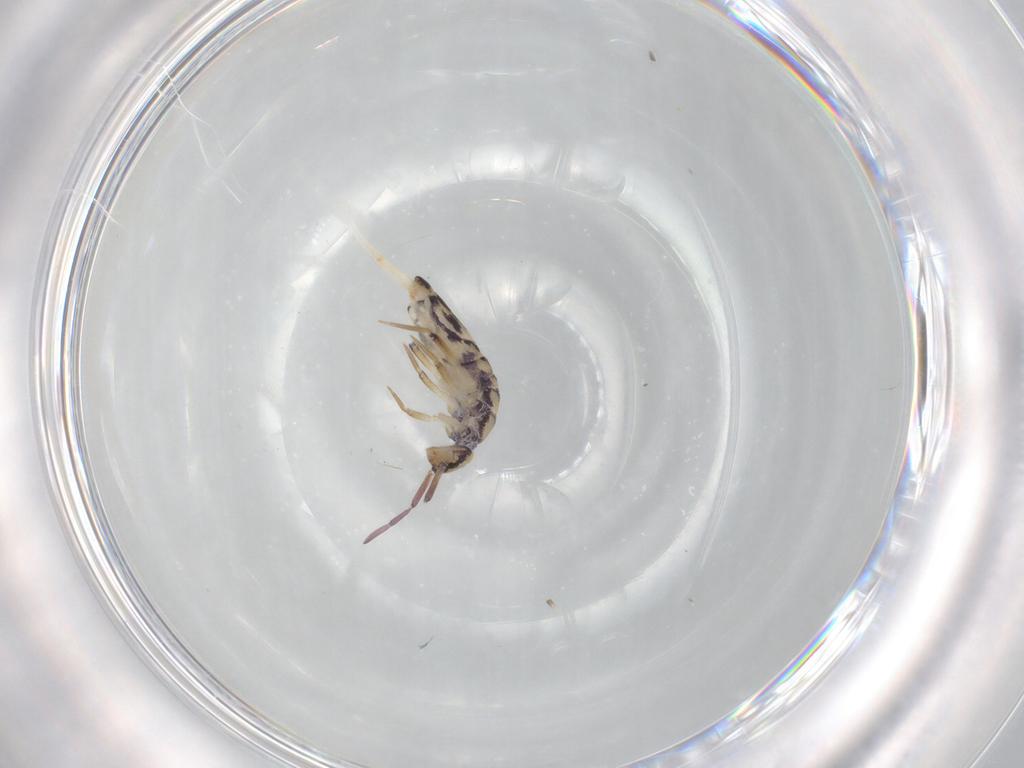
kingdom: Animalia
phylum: Arthropoda
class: Collembola
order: Entomobryomorpha
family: Entomobryidae
